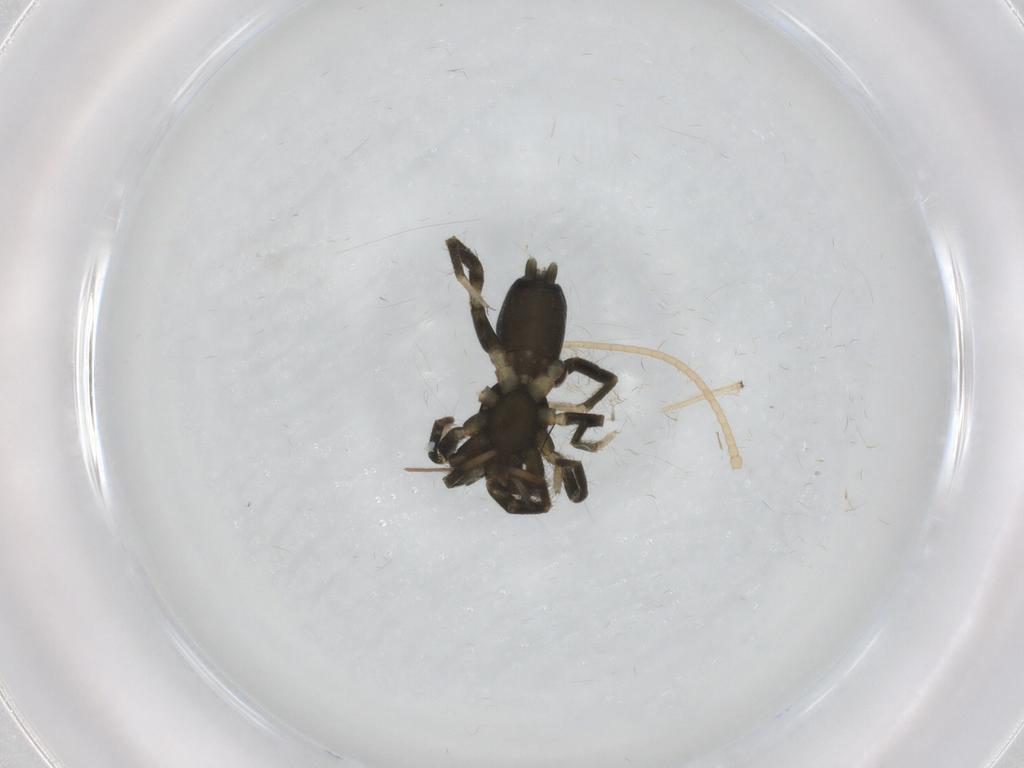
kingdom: Animalia
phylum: Arthropoda
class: Arachnida
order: Araneae
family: Gnaphosidae
